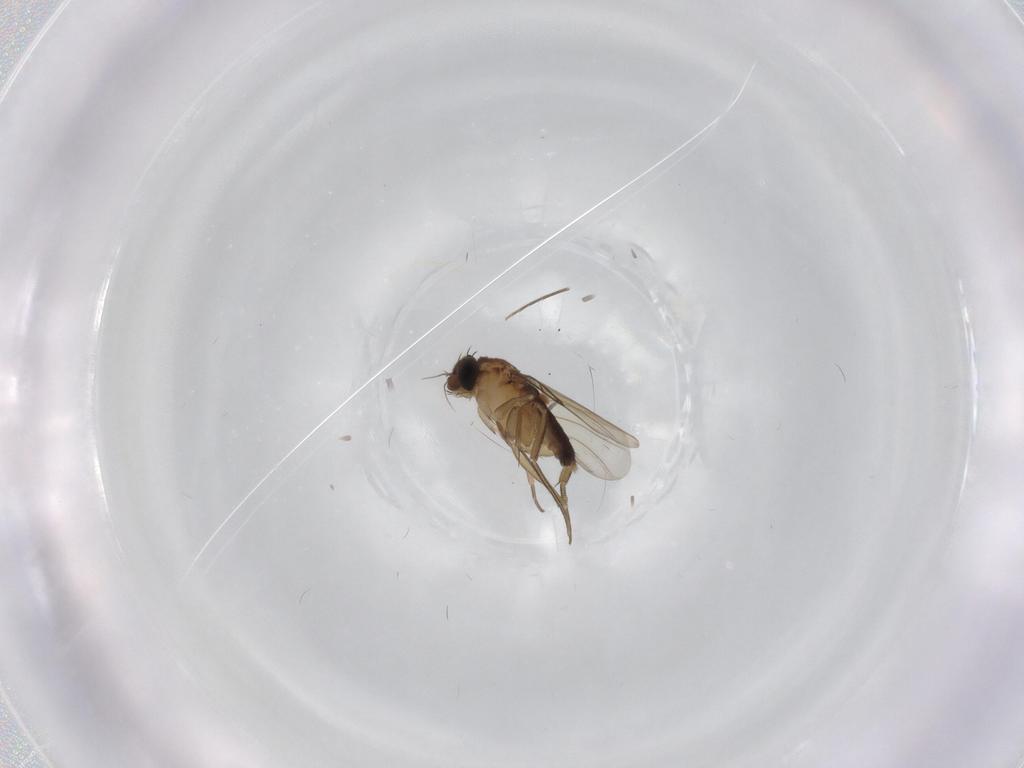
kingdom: Animalia
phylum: Arthropoda
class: Insecta
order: Diptera
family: Phoridae
